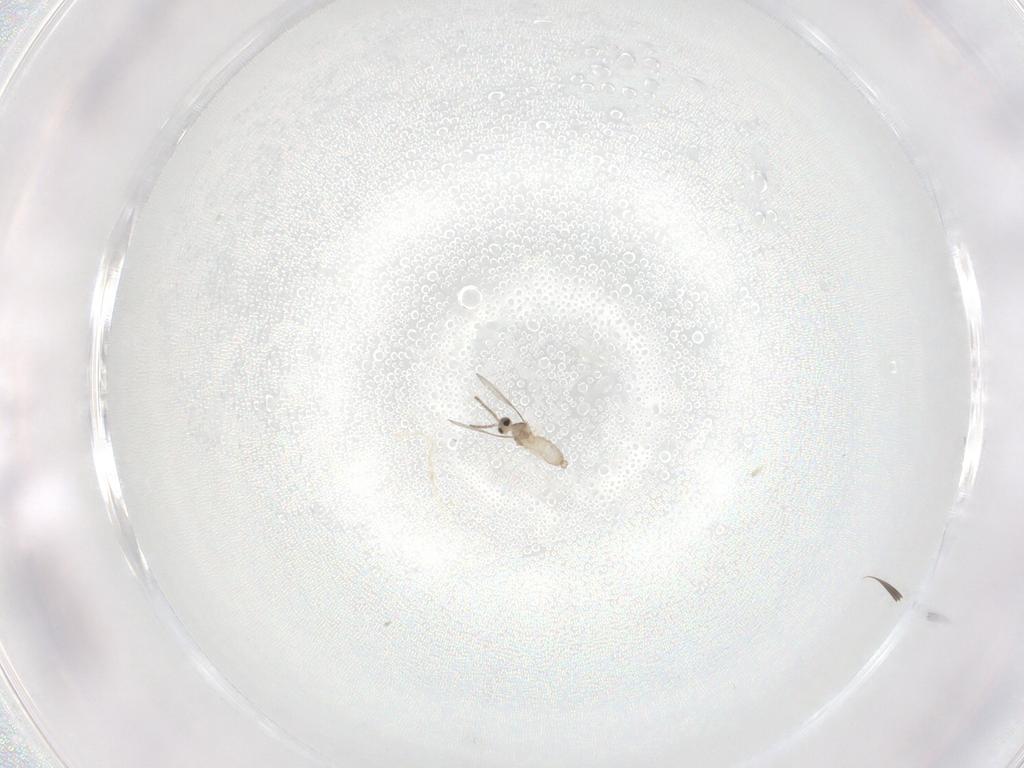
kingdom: Animalia
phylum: Arthropoda
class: Insecta
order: Diptera
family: Cecidomyiidae
